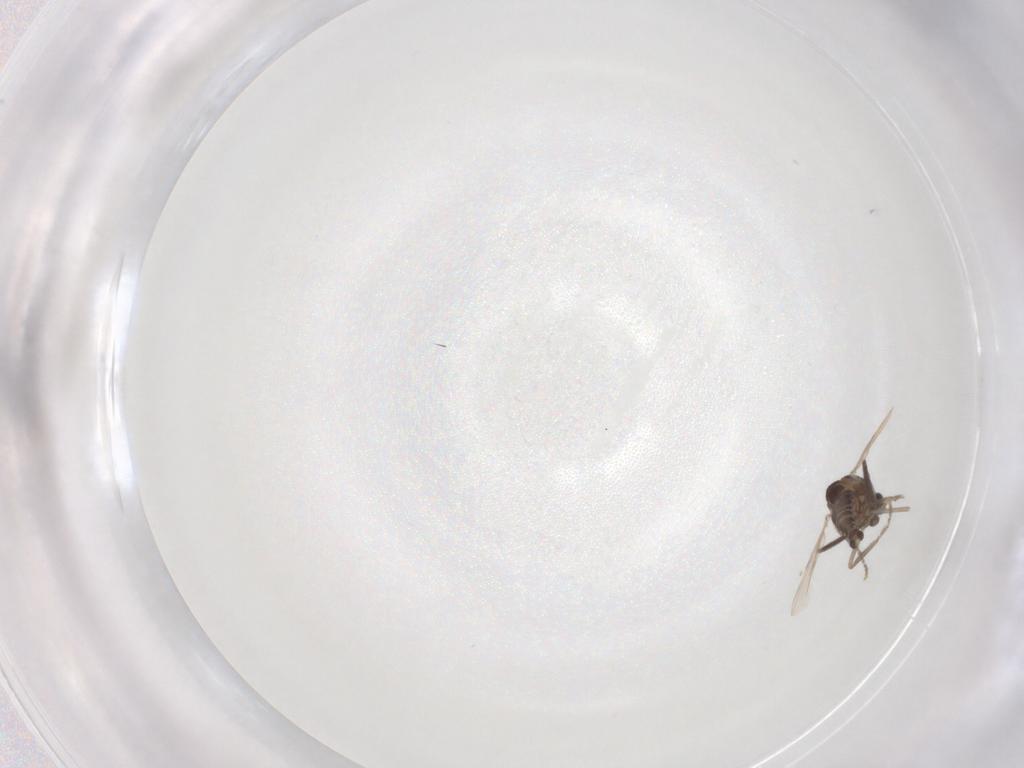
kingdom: Animalia
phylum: Arthropoda
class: Insecta
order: Diptera
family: Sciaridae
